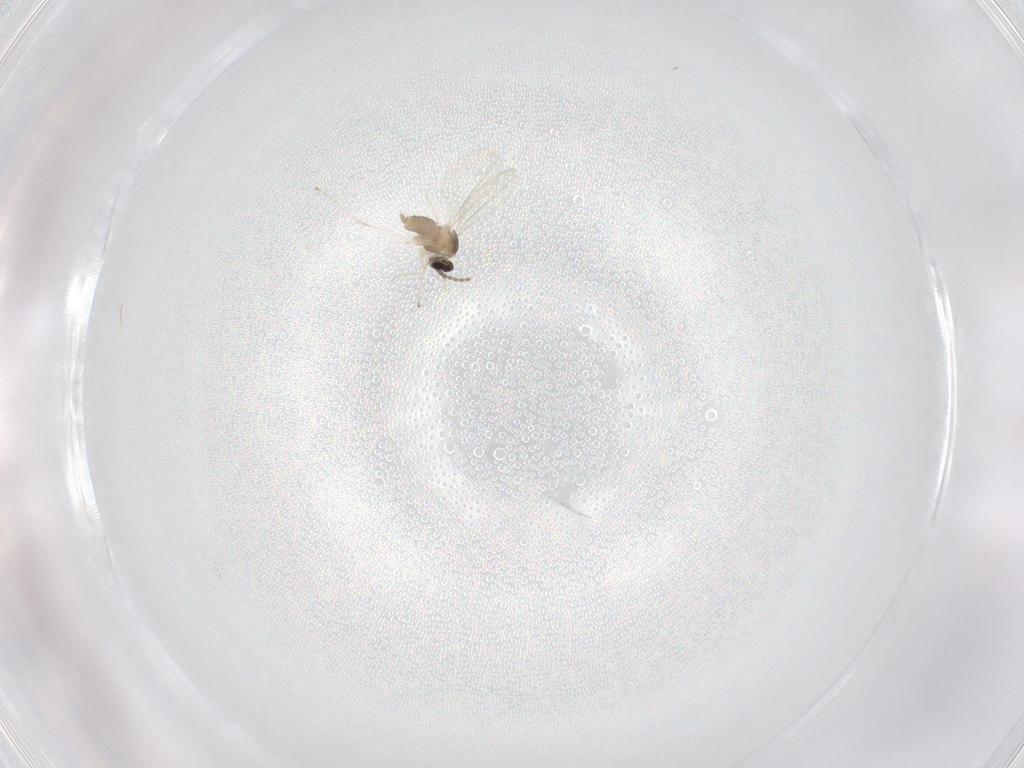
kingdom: Animalia
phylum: Arthropoda
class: Insecta
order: Diptera
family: Cecidomyiidae
